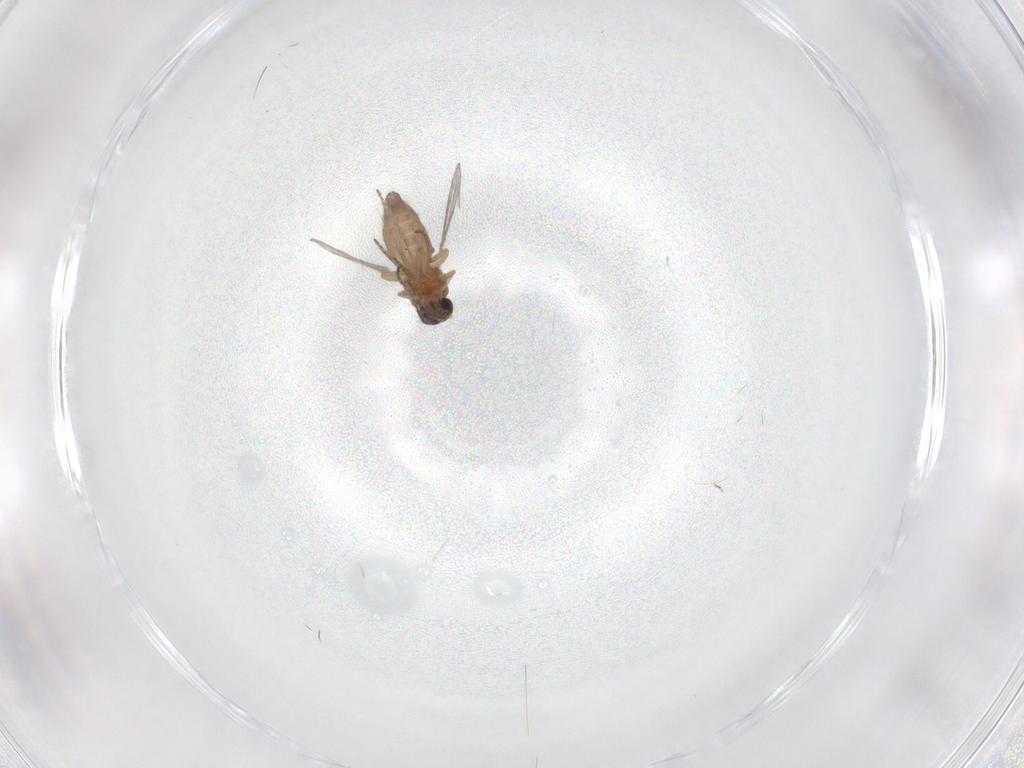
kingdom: Animalia
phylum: Arthropoda
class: Insecta
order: Diptera
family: Ceratopogonidae
